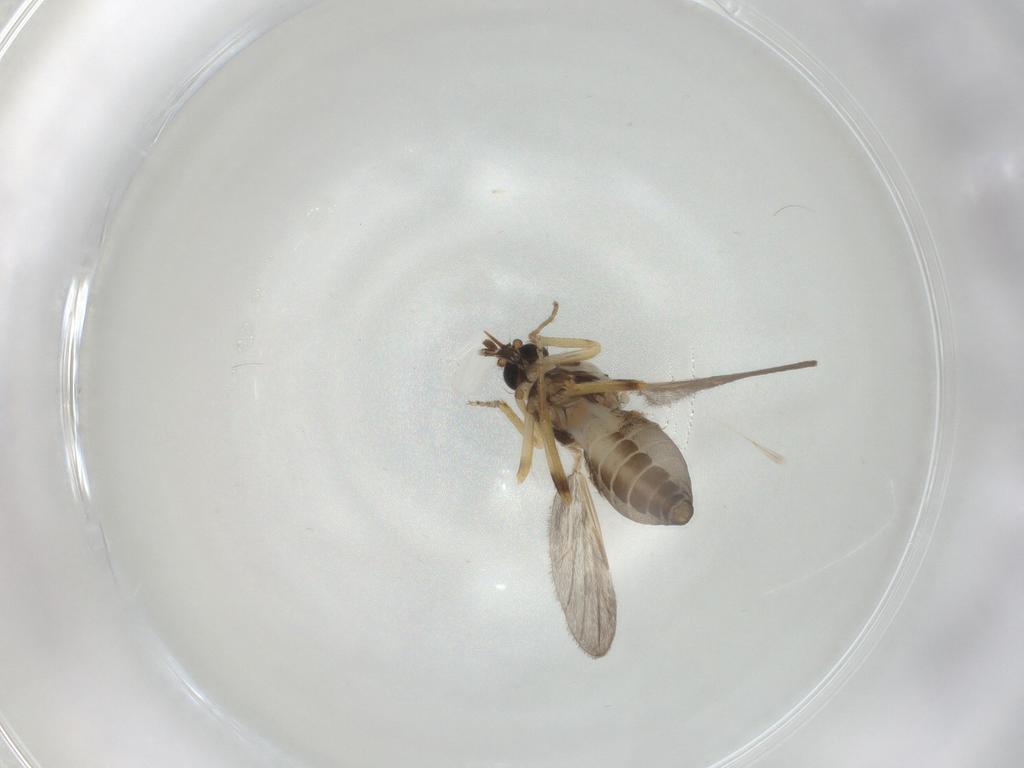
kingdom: Animalia
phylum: Arthropoda
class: Insecta
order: Diptera
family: Ceratopogonidae
